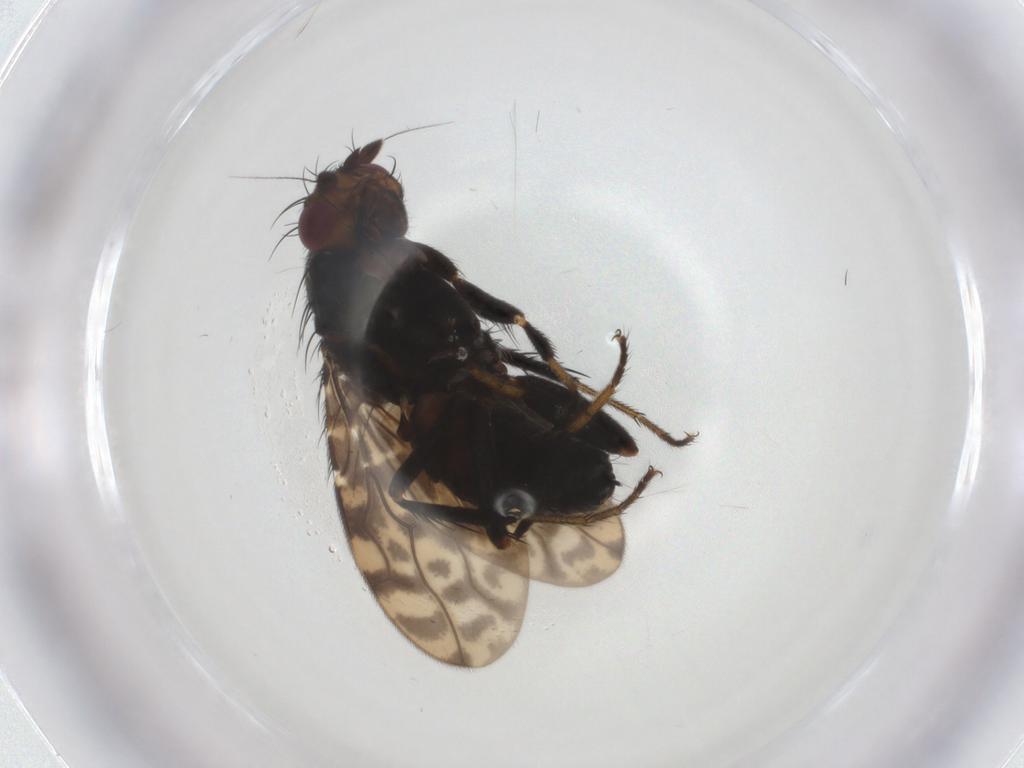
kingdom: Animalia
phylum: Arthropoda
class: Insecta
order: Diptera
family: Sphaeroceridae
